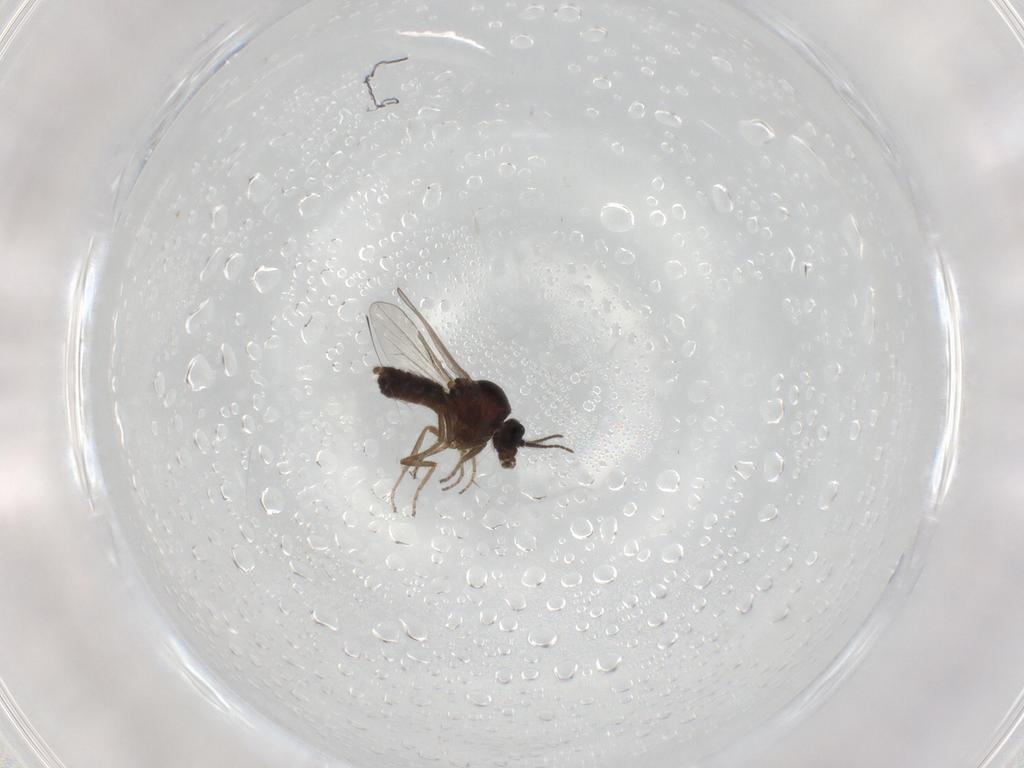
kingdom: Animalia
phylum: Arthropoda
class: Insecta
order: Diptera
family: Ceratopogonidae
